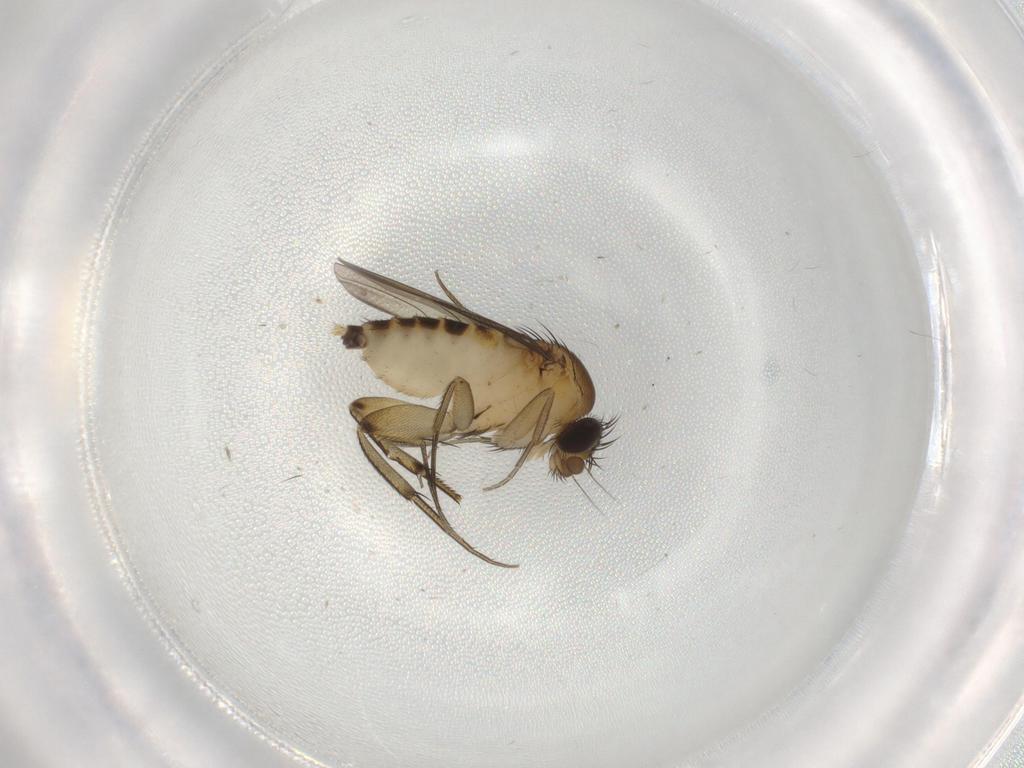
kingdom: Animalia
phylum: Arthropoda
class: Insecta
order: Diptera
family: Phoridae
